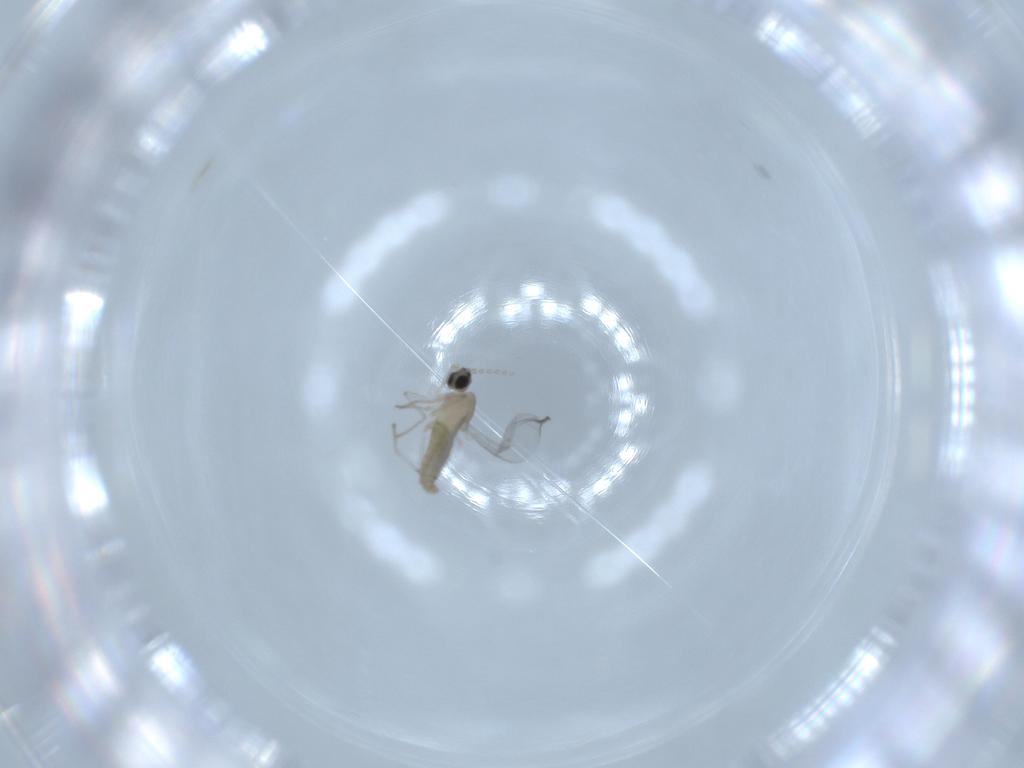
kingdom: Animalia
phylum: Arthropoda
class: Insecta
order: Diptera
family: Cecidomyiidae
